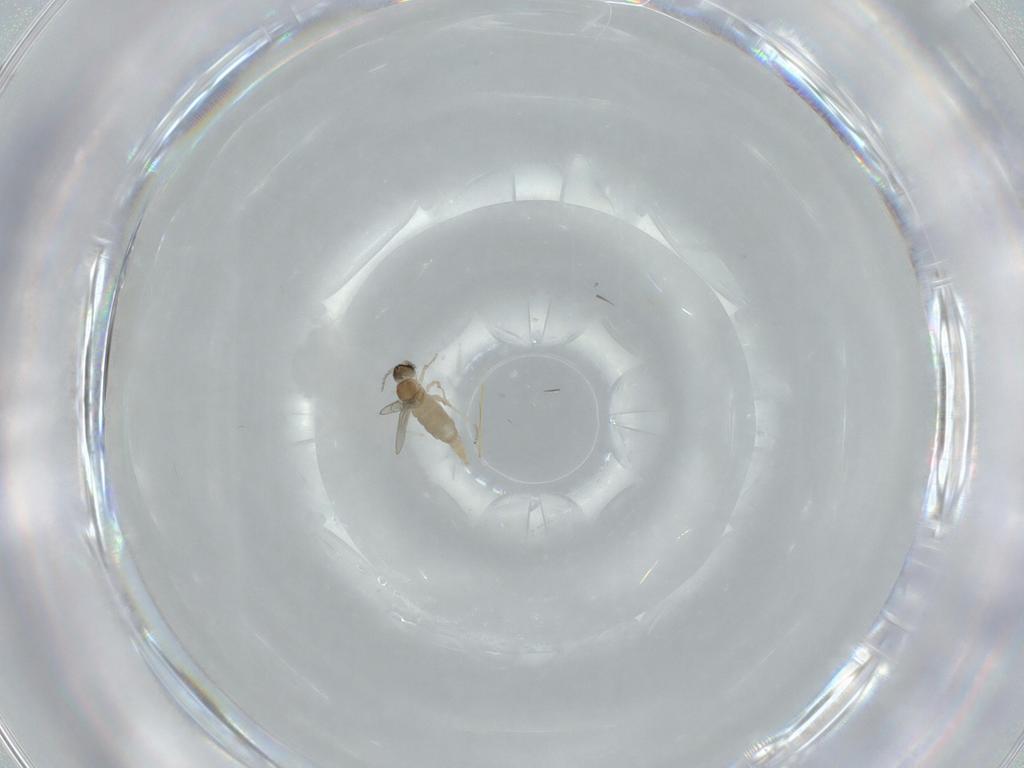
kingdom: Animalia
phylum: Arthropoda
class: Insecta
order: Diptera
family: Cecidomyiidae
